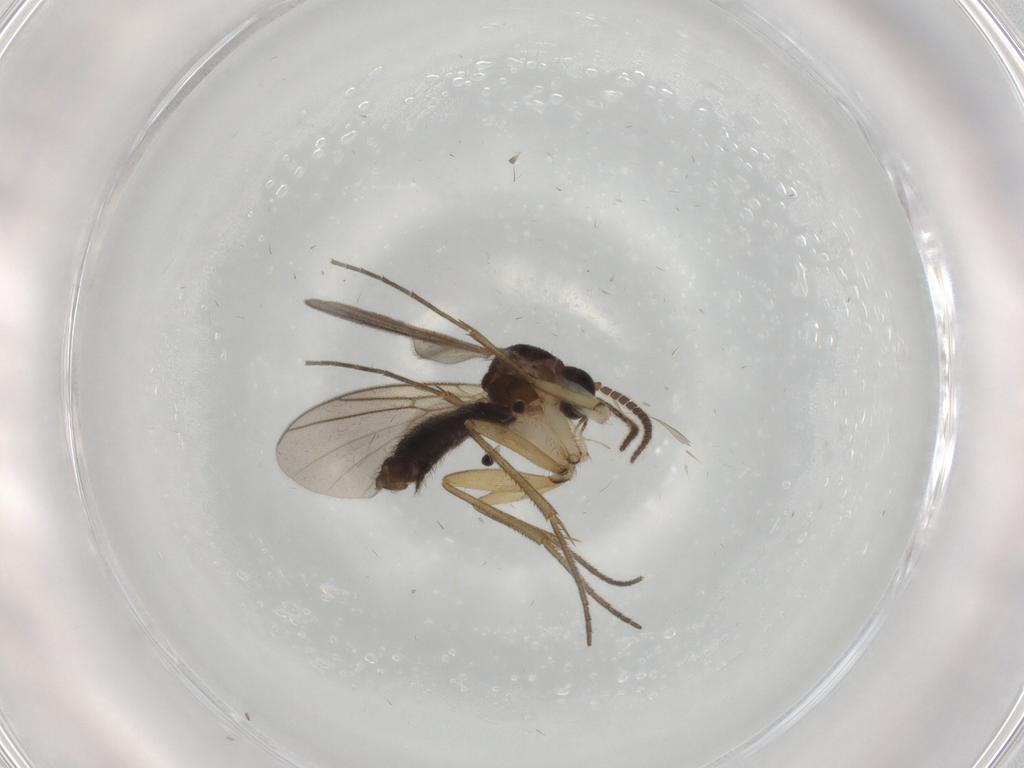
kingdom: Animalia
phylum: Arthropoda
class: Insecta
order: Diptera
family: Mycetophilidae
